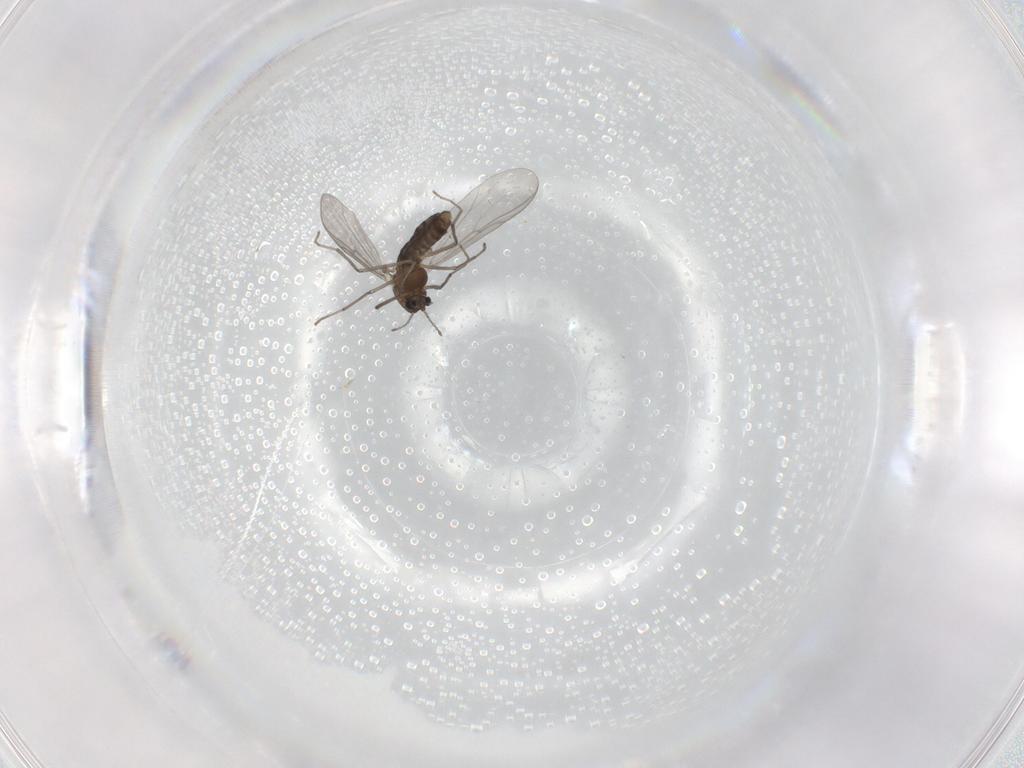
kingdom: Animalia
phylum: Arthropoda
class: Insecta
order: Diptera
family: Chironomidae
